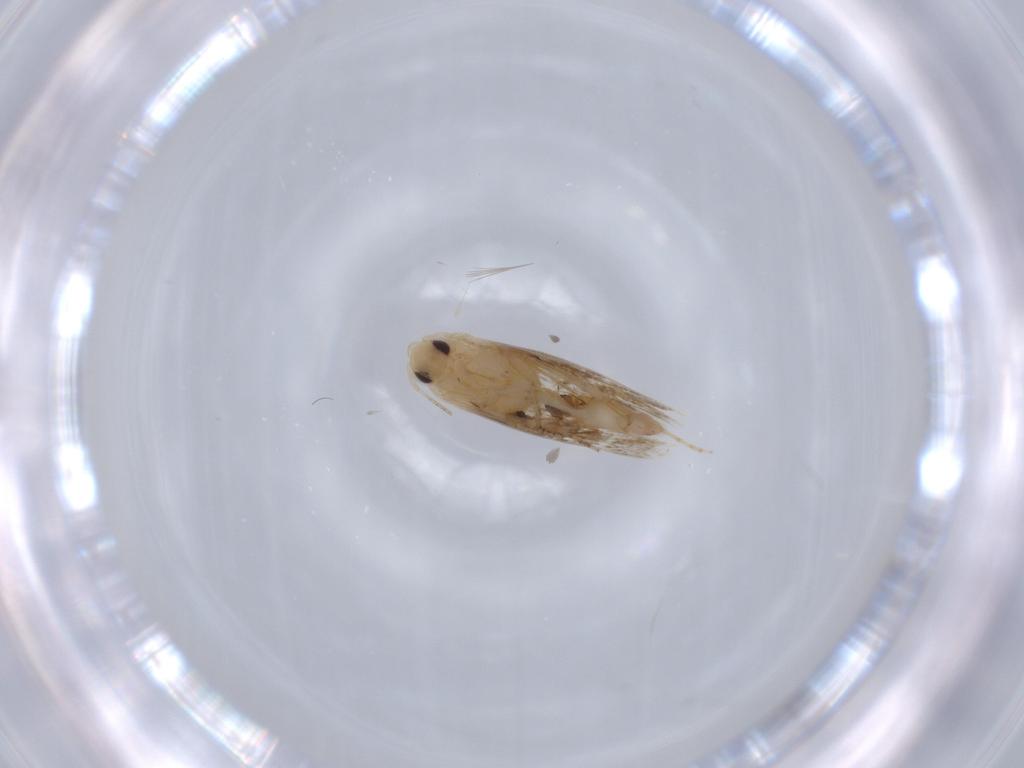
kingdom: Animalia
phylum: Arthropoda
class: Insecta
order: Lepidoptera
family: Bucculatricidae
